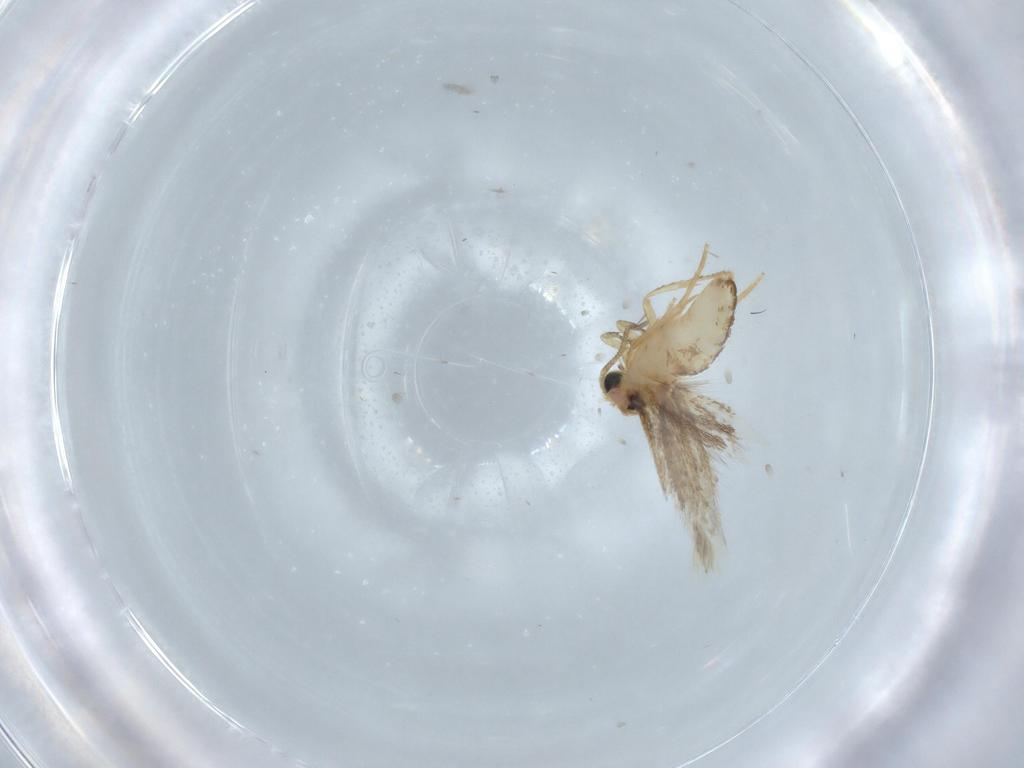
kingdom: Animalia
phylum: Arthropoda
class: Insecta
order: Lepidoptera
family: Nepticulidae
